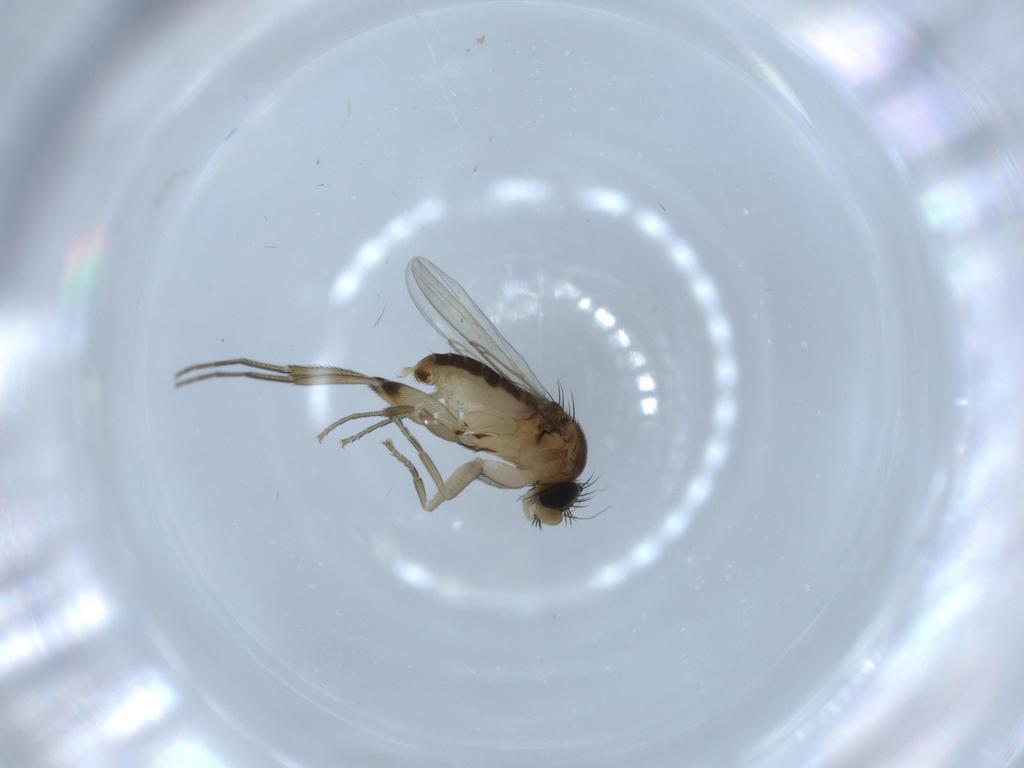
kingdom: Animalia
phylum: Arthropoda
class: Insecta
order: Diptera
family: Phoridae
